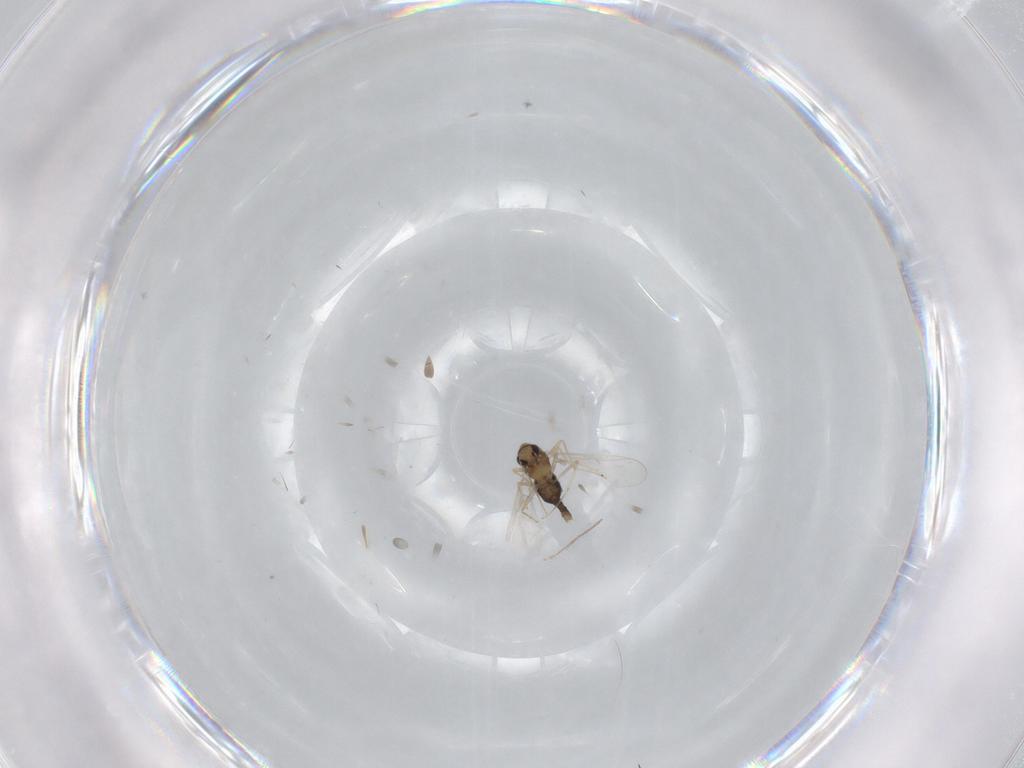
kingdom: Animalia
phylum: Arthropoda
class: Insecta
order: Diptera
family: Chironomidae
